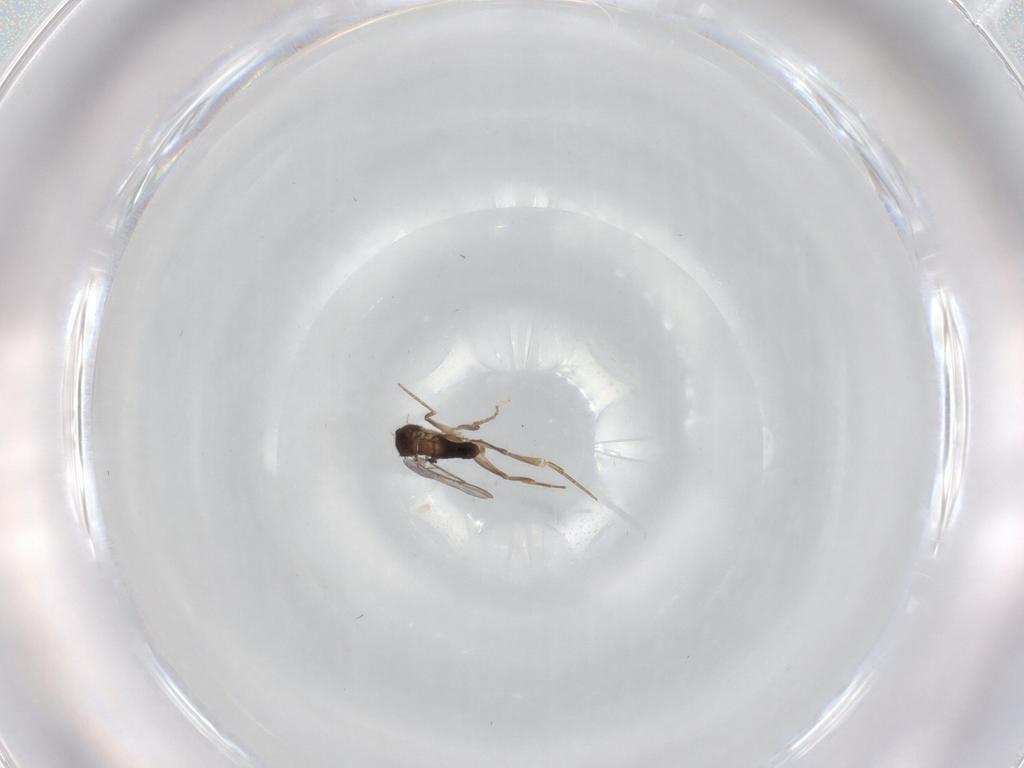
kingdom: Animalia
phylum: Arthropoda
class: Insecta
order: Diptera
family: Phoridae
